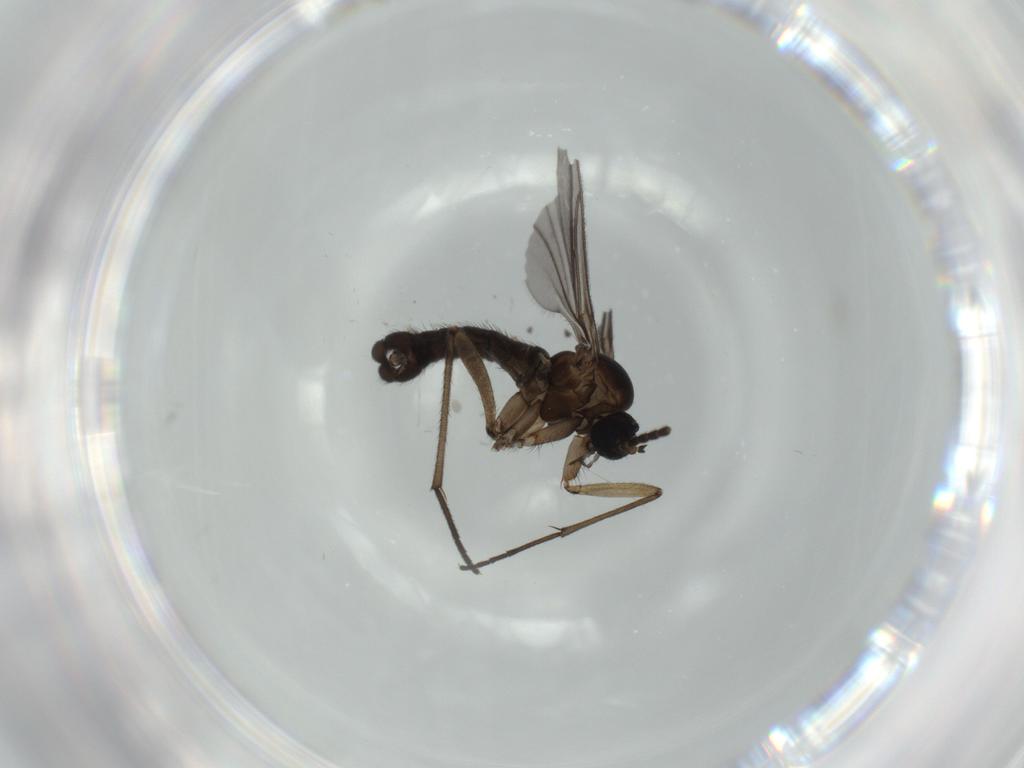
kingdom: Animalia
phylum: Arthropoda
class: Insecta
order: Diptera
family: Sciaridae
